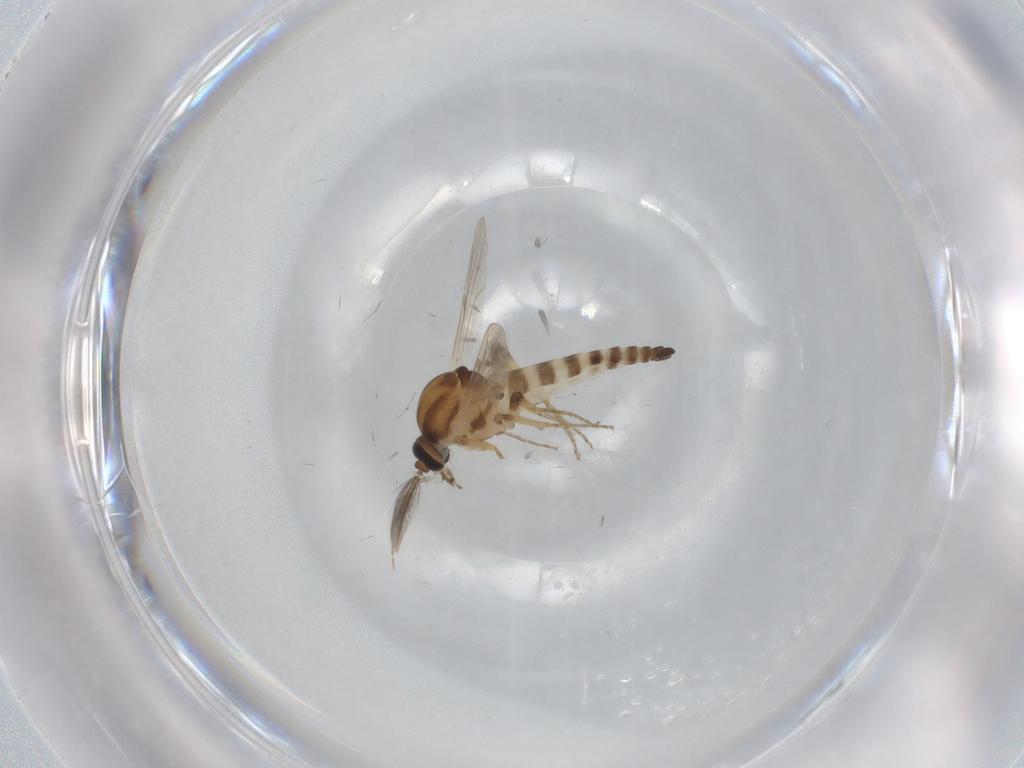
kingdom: Animalia
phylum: Arthropoda
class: Insecta
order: Diptera
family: Ceratopogonidae
